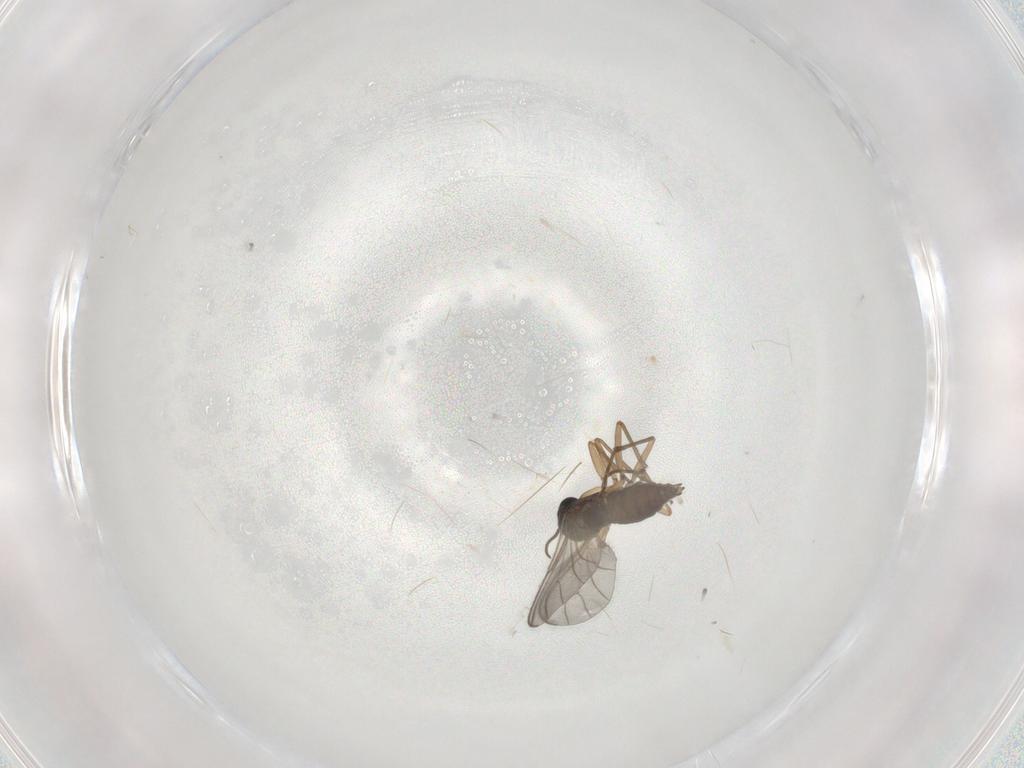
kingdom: Animalia
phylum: Arthropoda
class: Insecta
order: Diptera
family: Sciaridae
